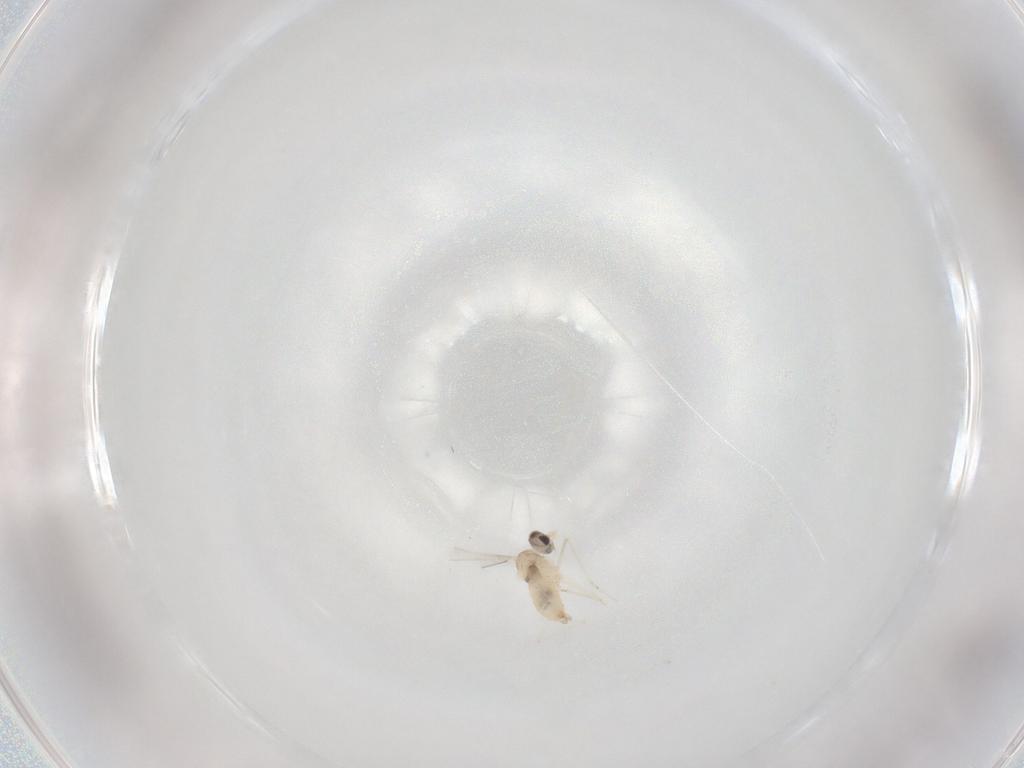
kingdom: Animalia
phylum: Arthropoda
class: Insecta
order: Diptera
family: Cecidomyiidae
